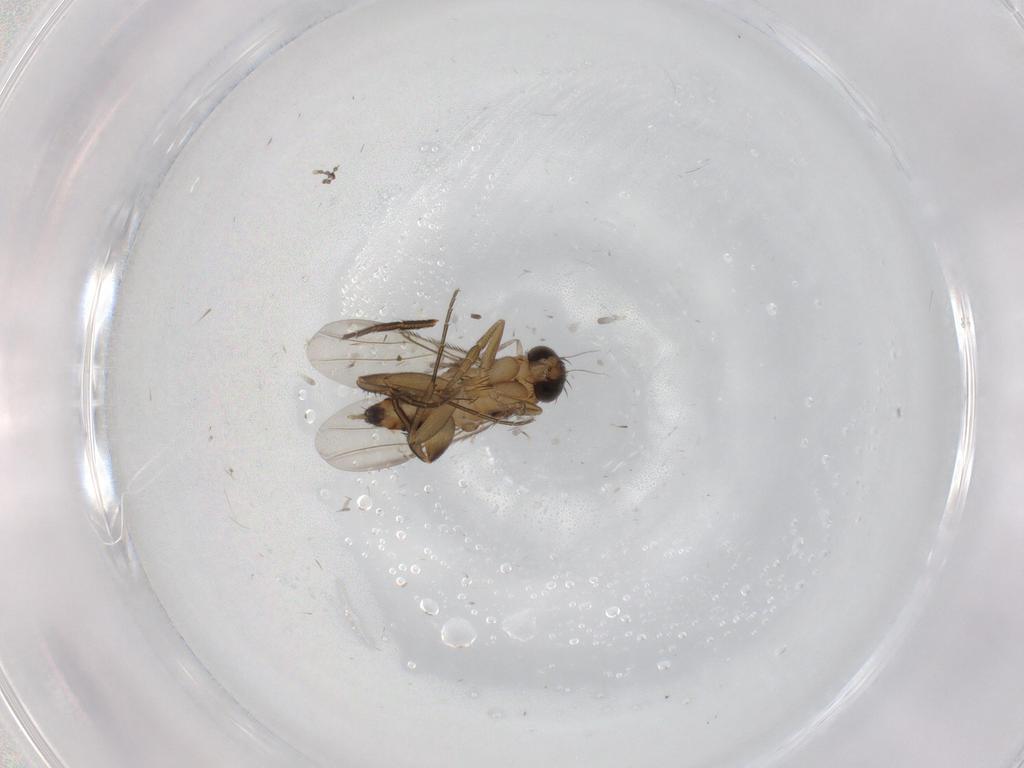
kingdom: Animalia
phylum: Arthropoda
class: Insecta
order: Diptera
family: Phoridae
